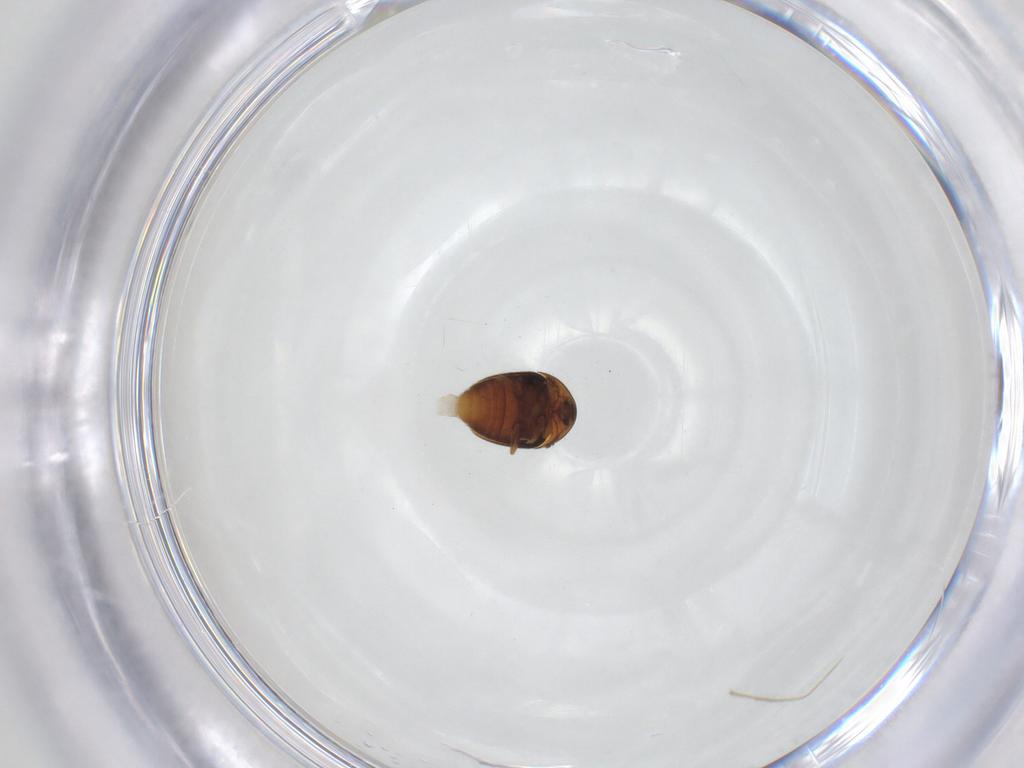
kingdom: Animalia
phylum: Arthropoda
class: Insecta
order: Coleoptera
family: Corylophidae
